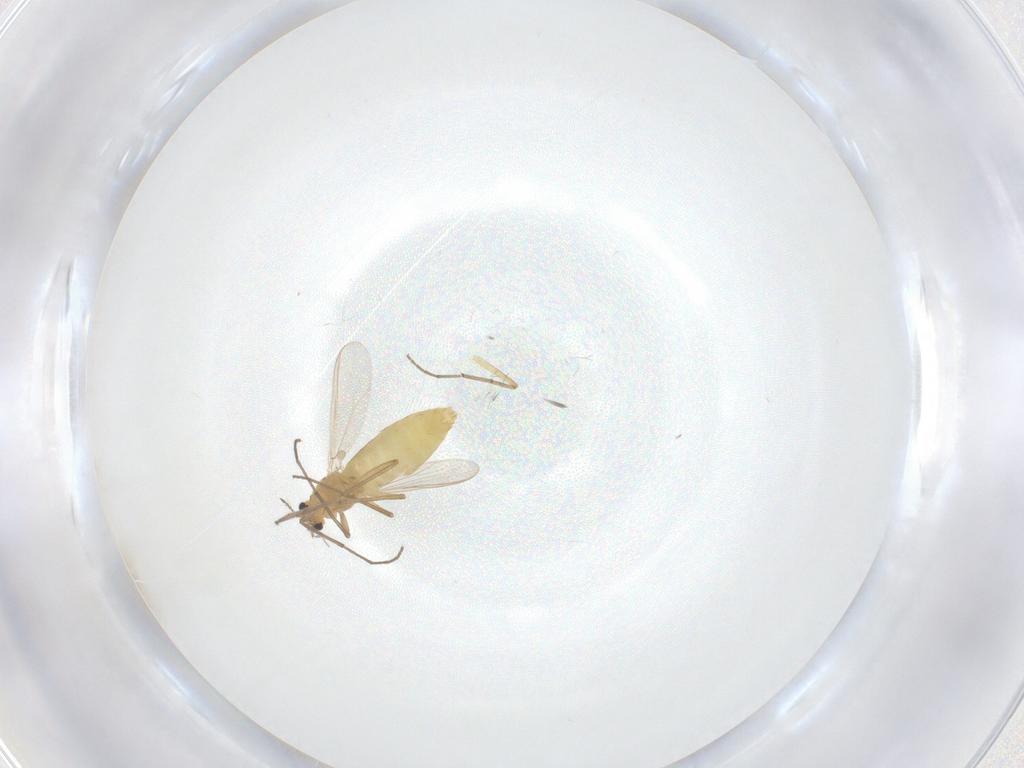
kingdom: Animalia
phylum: Arthropoda
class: Insecta
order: Diptera
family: Chironomidae
